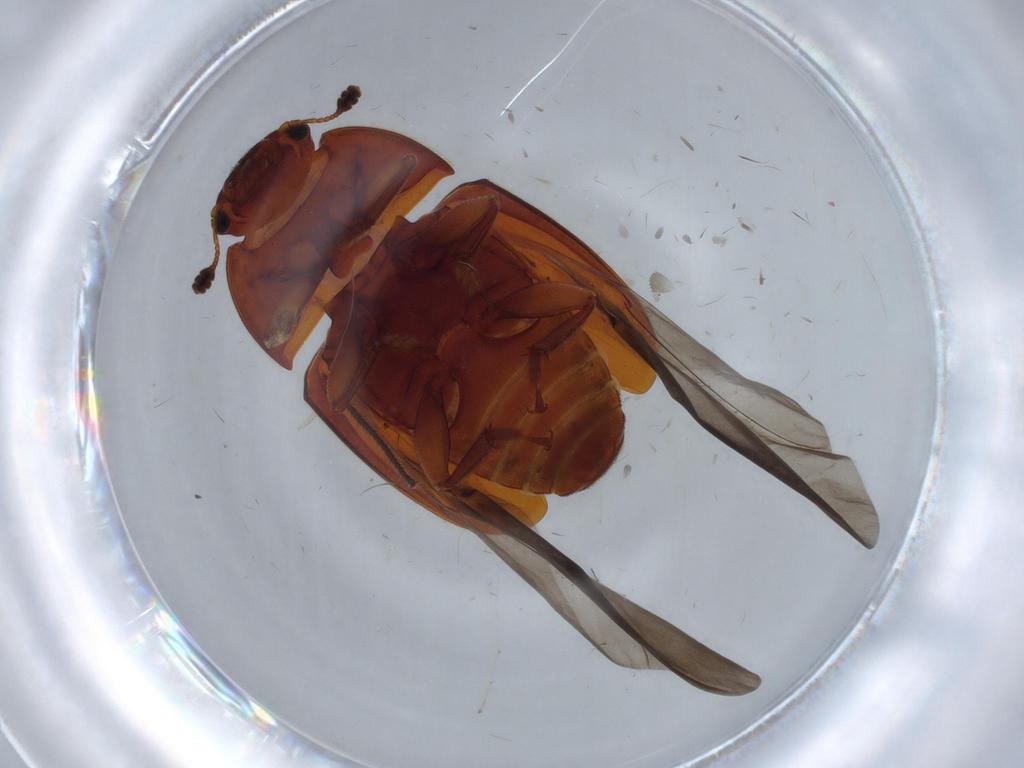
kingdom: Animalia
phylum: Arthropoda
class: Insecta
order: Coleoptera
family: Nitidulidae
